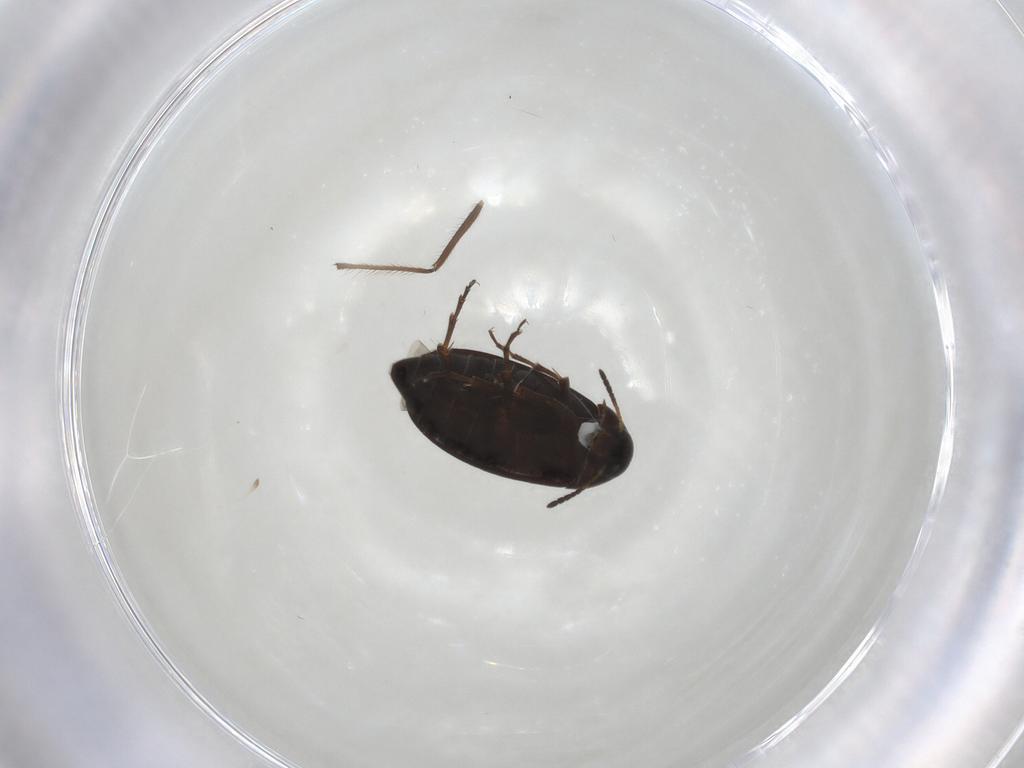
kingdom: Animalia
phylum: Arthropoda
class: Insecta
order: Coleoptera
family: Scraptiidae
